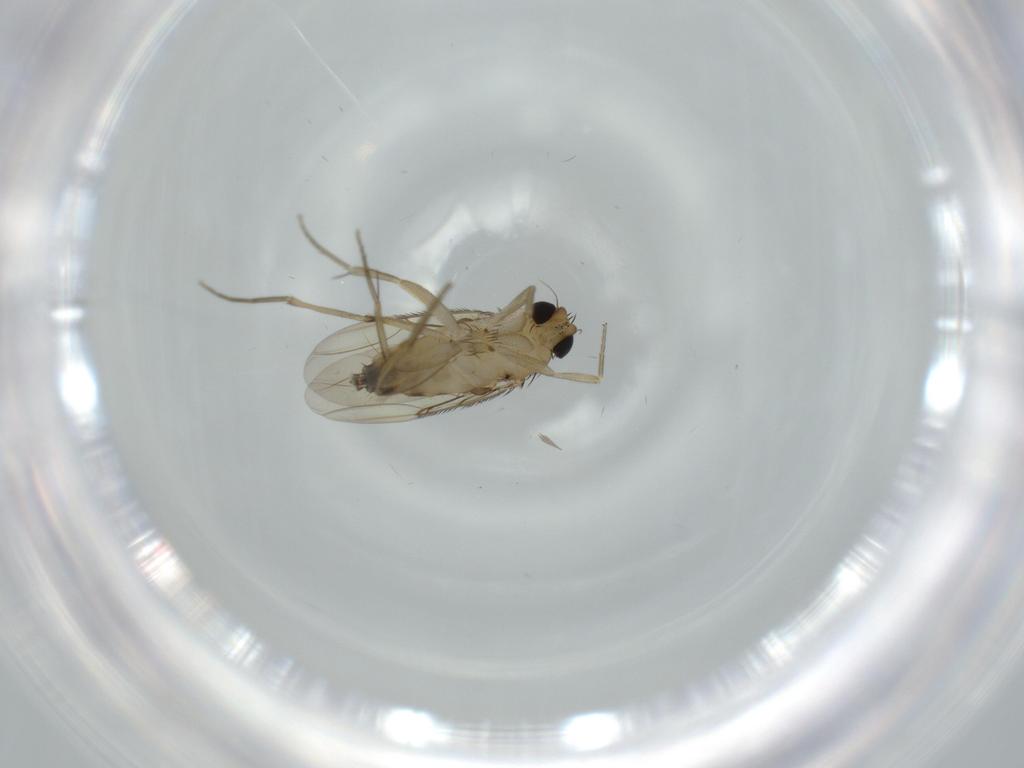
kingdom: Animalia
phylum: Arthropoda
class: Insecta
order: Diptera
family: Phoridae
